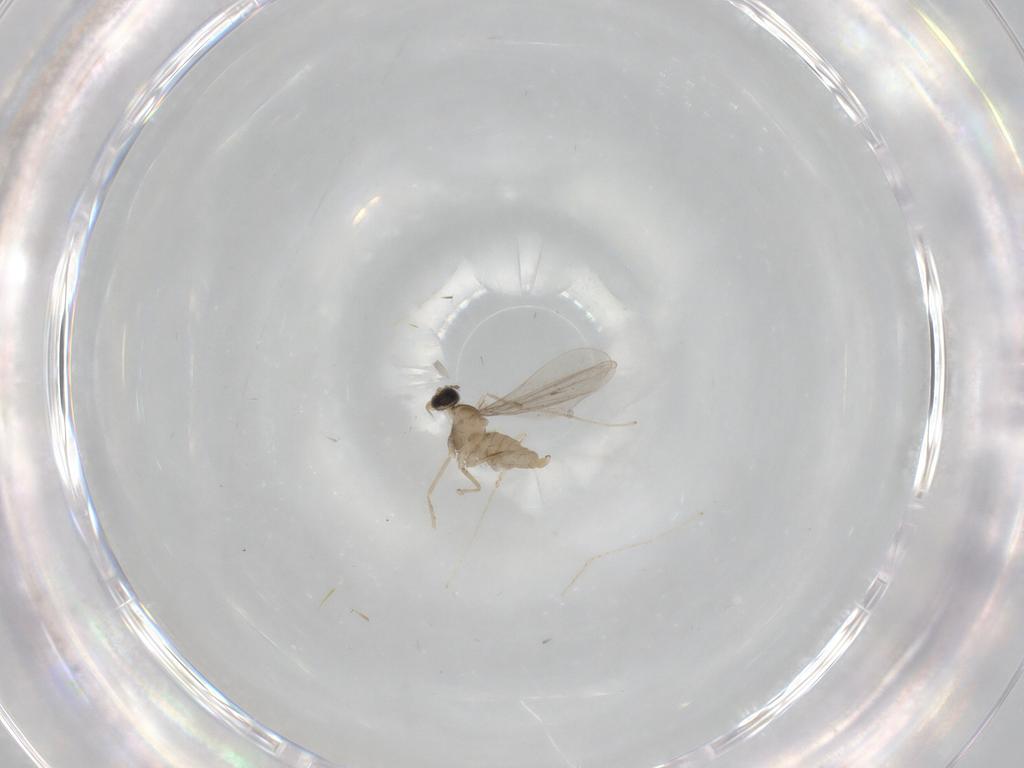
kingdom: Animalia
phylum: Arthropoda
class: Insecta
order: Diptera
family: Cecidomyiidae
